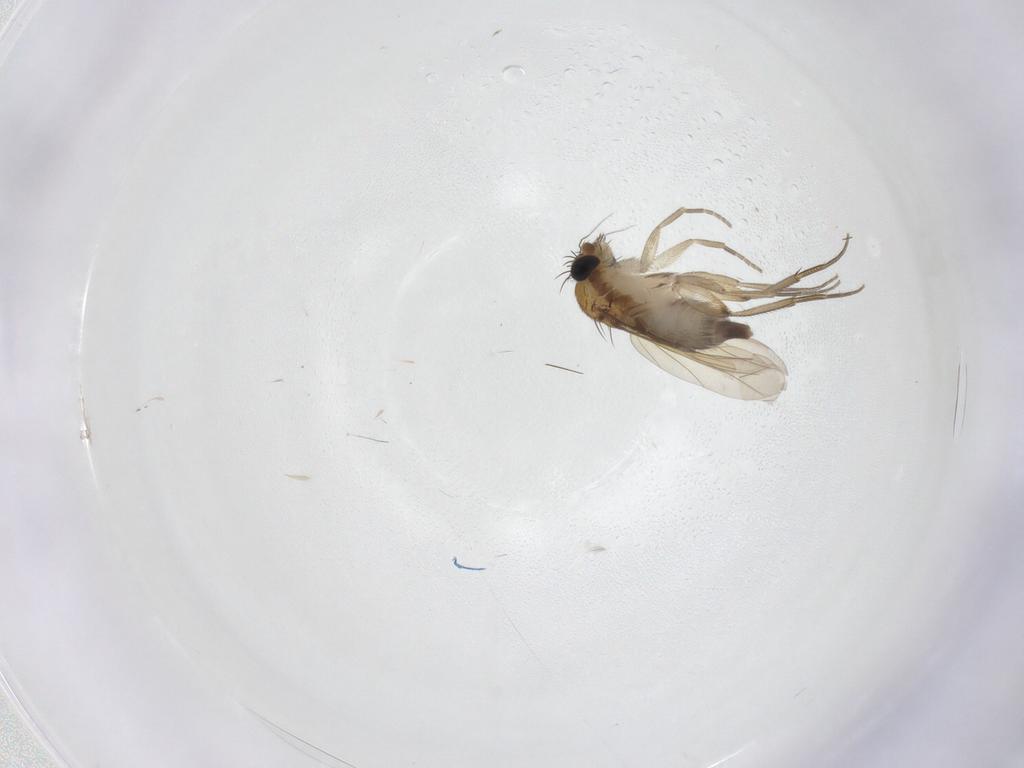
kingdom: Animalia
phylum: Arthropoda
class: Insecta
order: Diptera
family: Phoridae
